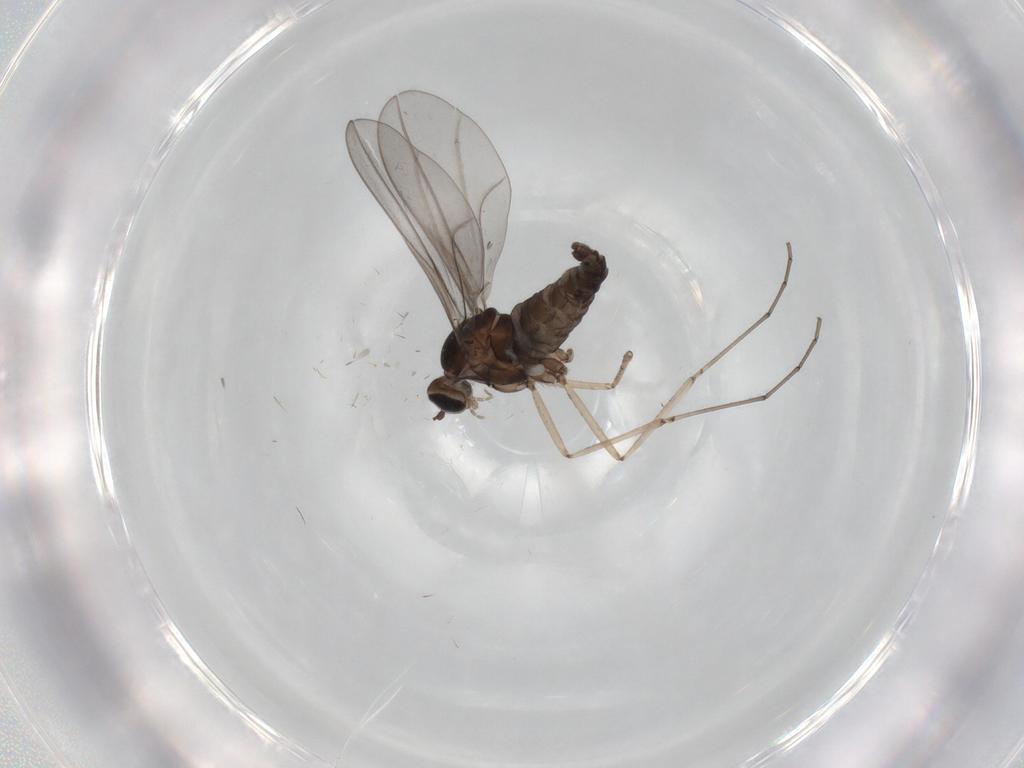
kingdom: Animalia
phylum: Arthropoda
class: Insecta
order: Diptera
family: Cecidomyiidae
